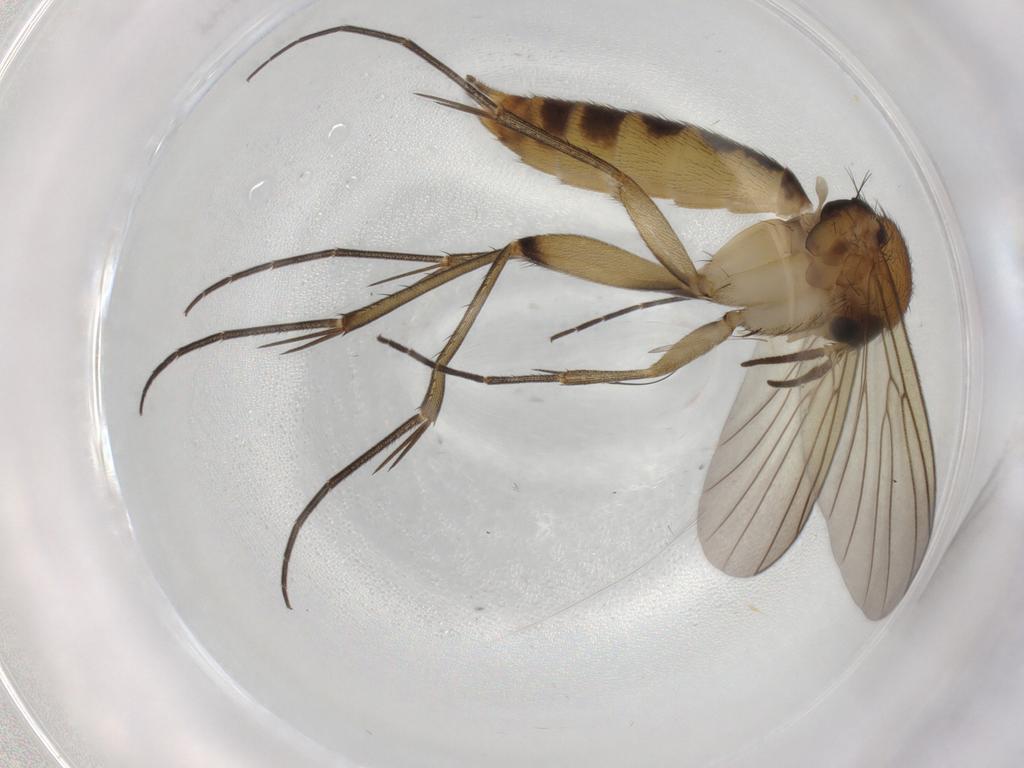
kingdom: Animalia
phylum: Arthropoda
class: Insecta
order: Diptera
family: Mycetophilidae
